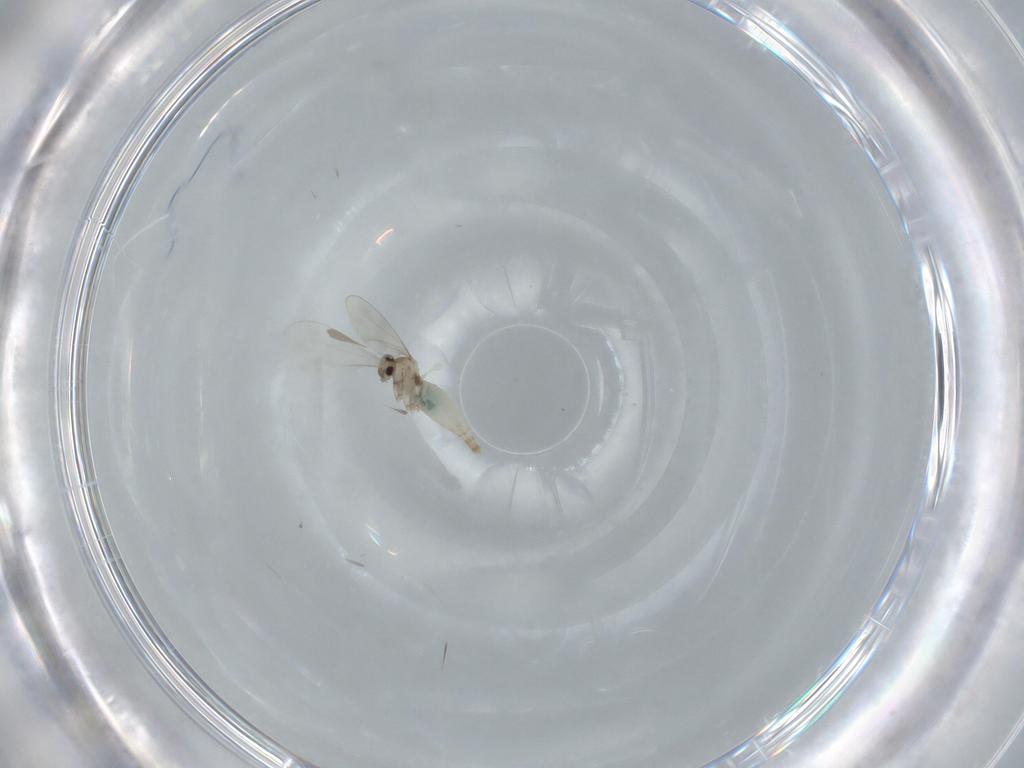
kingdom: Animalia
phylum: Arthropoda
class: Insecta
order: Diptera
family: Cecidomyiidae
